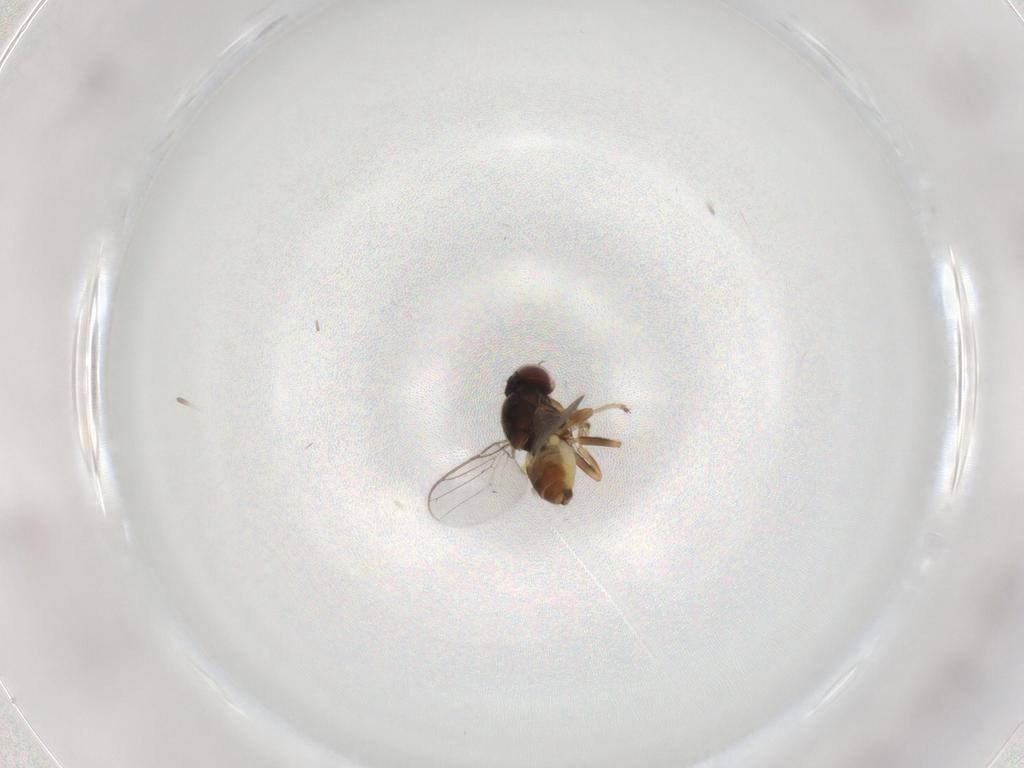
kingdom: Animalia
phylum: Arthropoda
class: Insecta
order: Diptera
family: Chloropidae
